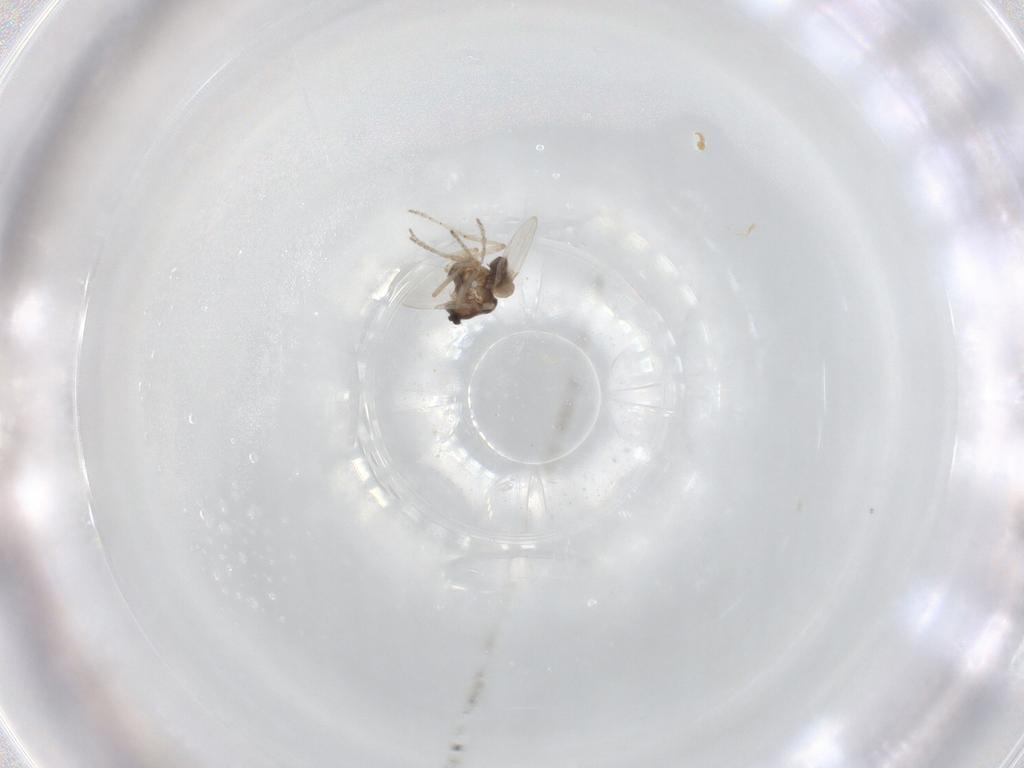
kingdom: Animalia
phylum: Arthropoda
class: Insecta
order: Diptera
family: Ceratopogonidae
